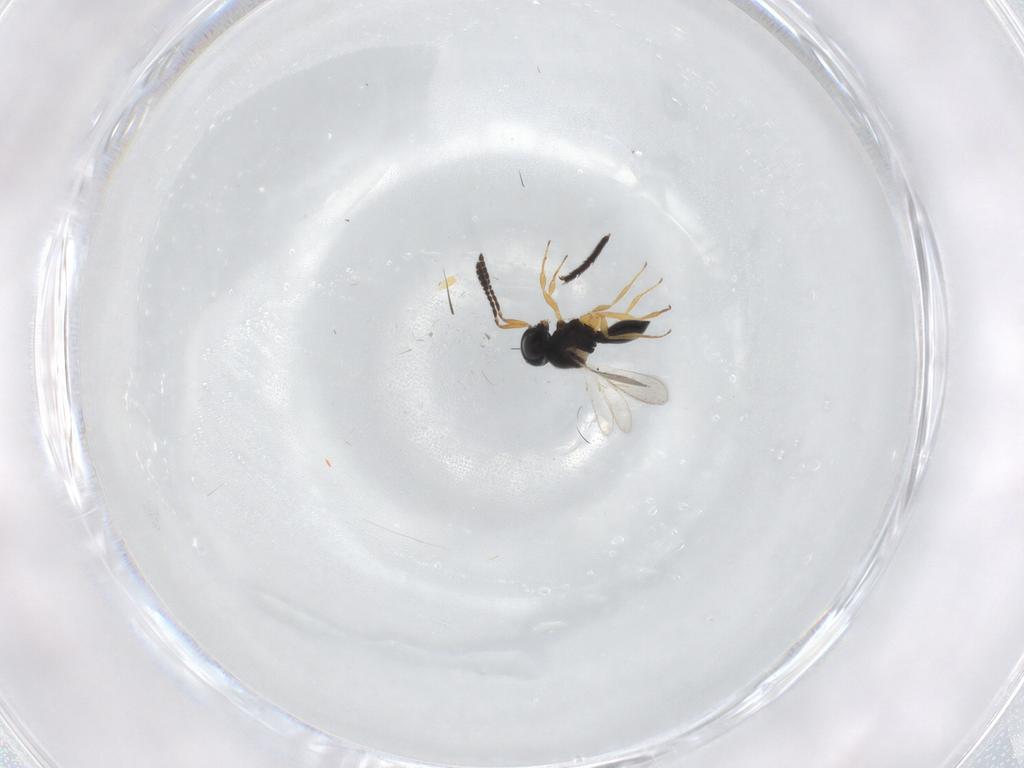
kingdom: Animalia
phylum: Arthropoda
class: Insecta
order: Hymenoptera
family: Scelionidae
